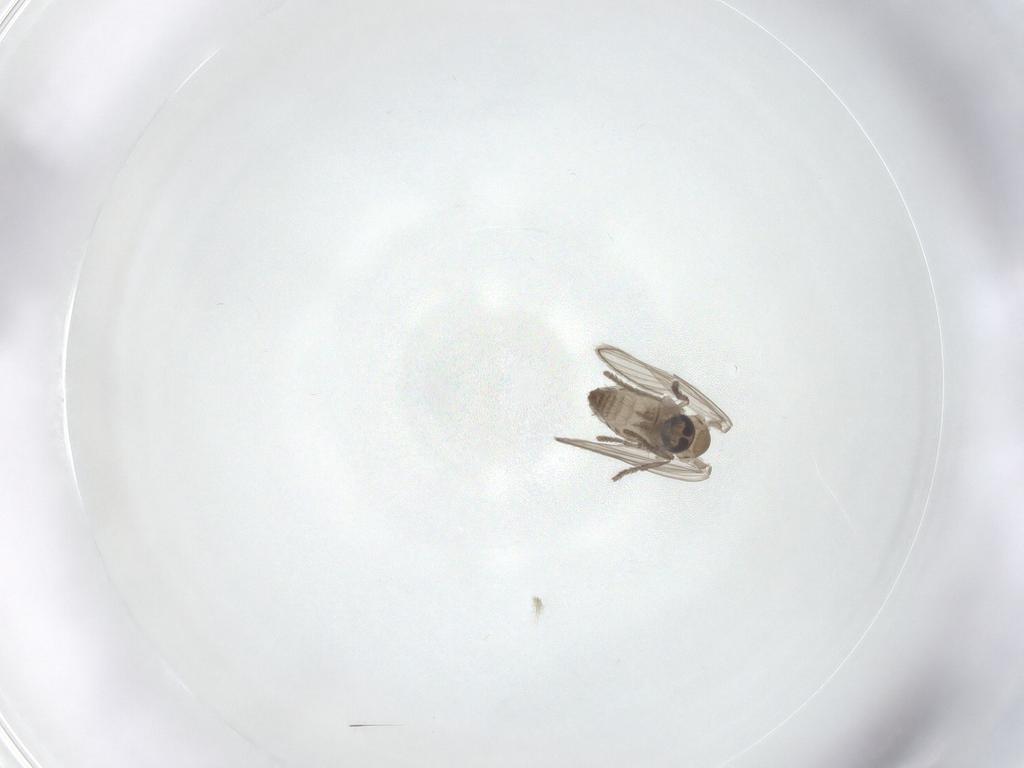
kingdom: Animalia
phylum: Arthropoda
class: Insecta
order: Diptera
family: Psychodidae
